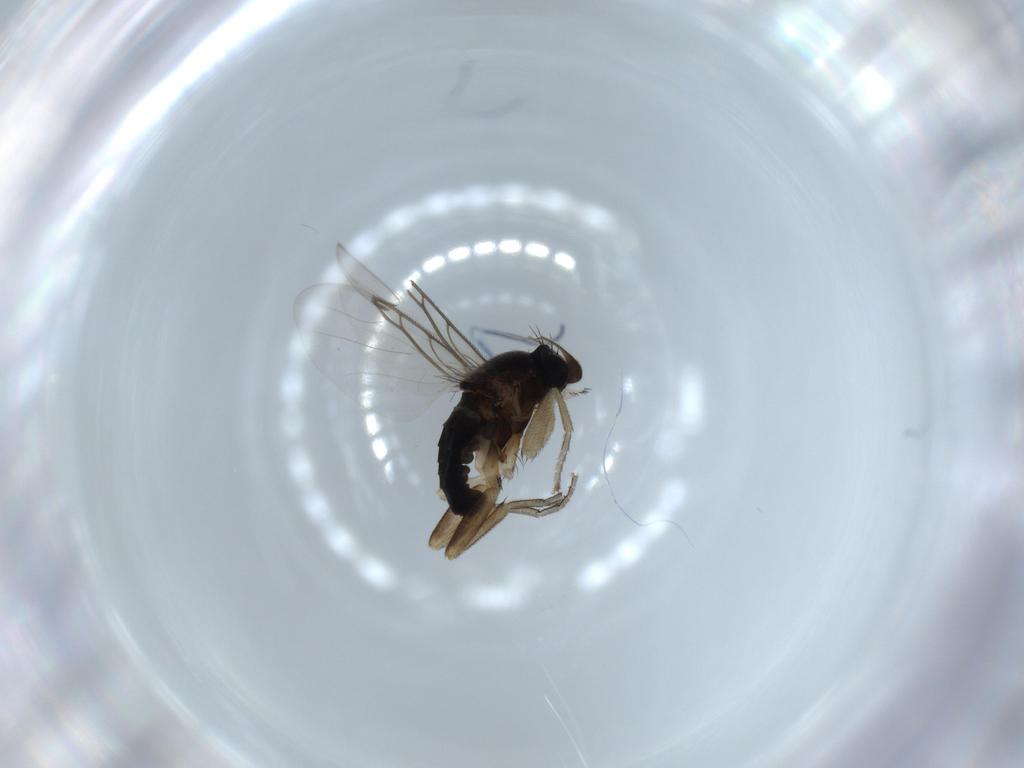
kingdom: Animalia
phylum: Arthropoda
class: Insecta
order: Diptera
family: Phoridae
